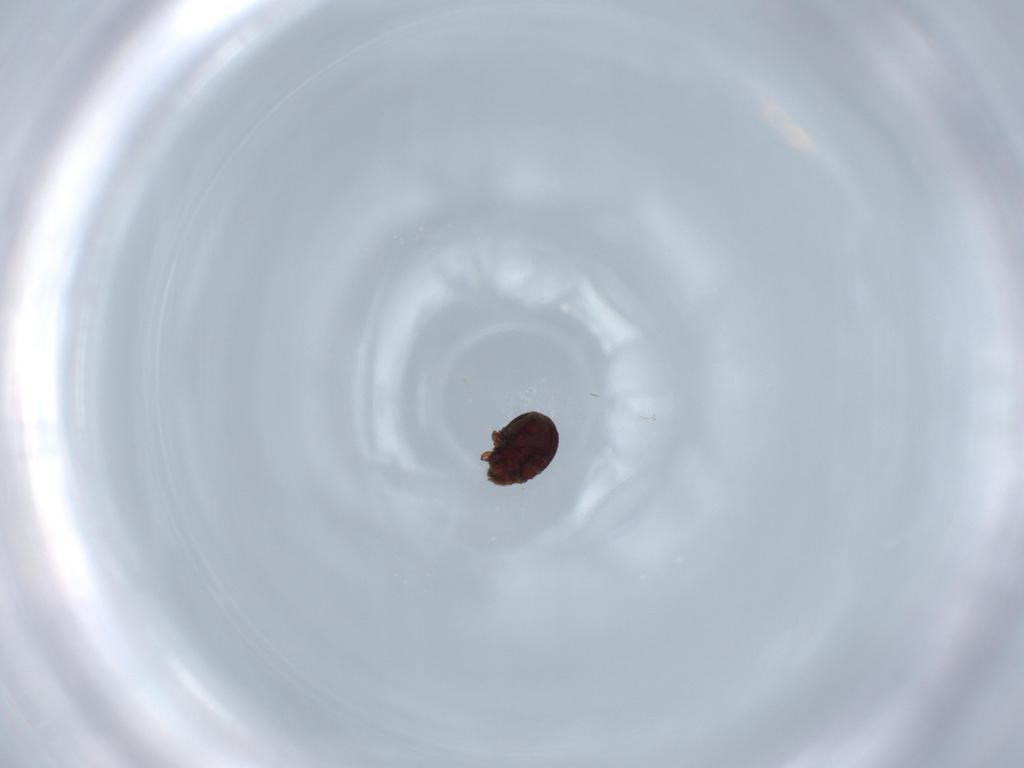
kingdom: Animalia
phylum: Arthropoda
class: Arachnida
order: Sarcoptiformes
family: Cepheusidae
